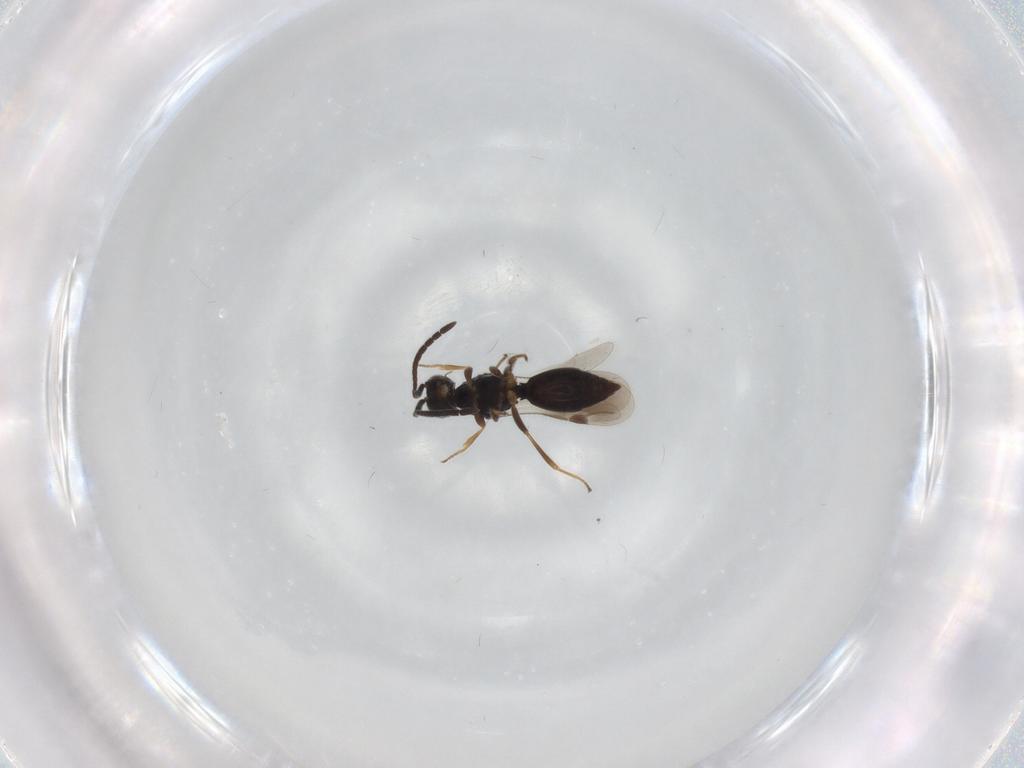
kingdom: Animalia
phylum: Arthropoda
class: Insecta
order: Hymenoptera
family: Megaspilidae
